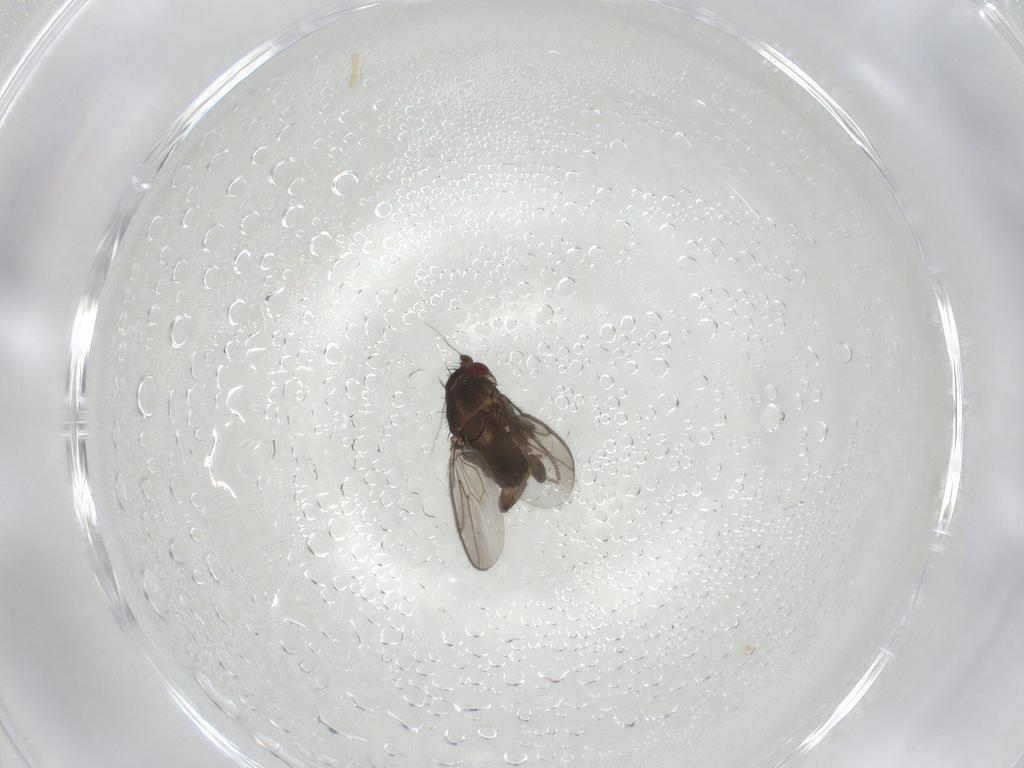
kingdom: Animalia
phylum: Arthropoda
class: Insecta
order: Diptera
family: Sphaeroceridae
